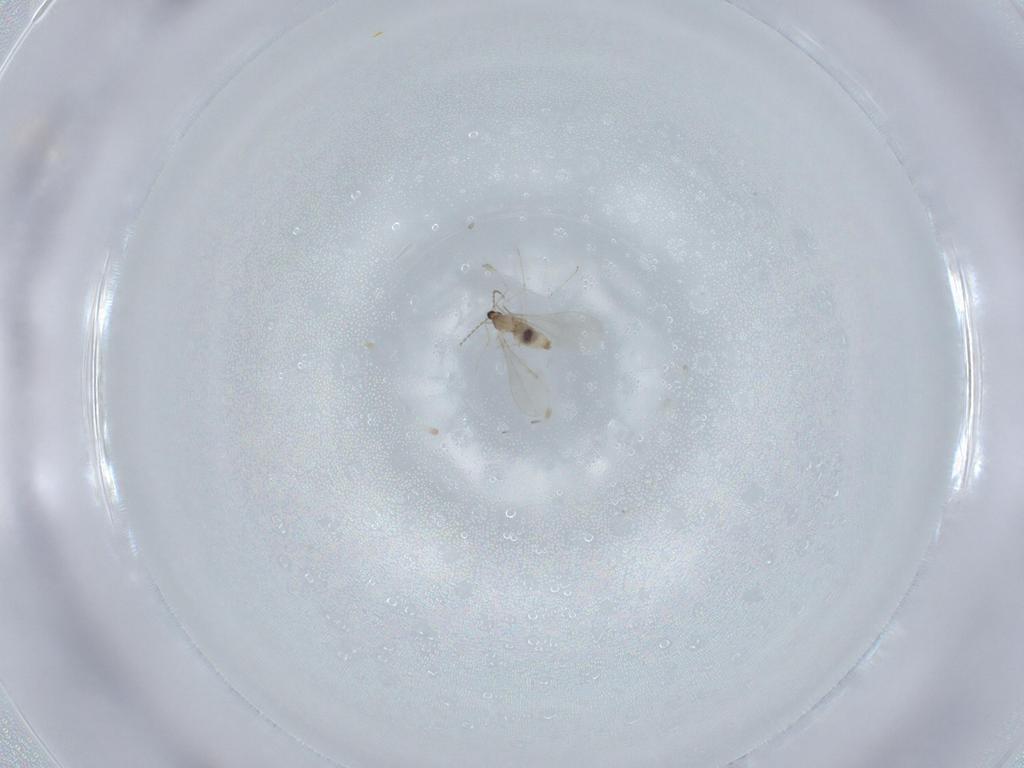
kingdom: Animalia
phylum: Arthropoda
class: Insecta
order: Diptera
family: Cecidomyiidae
